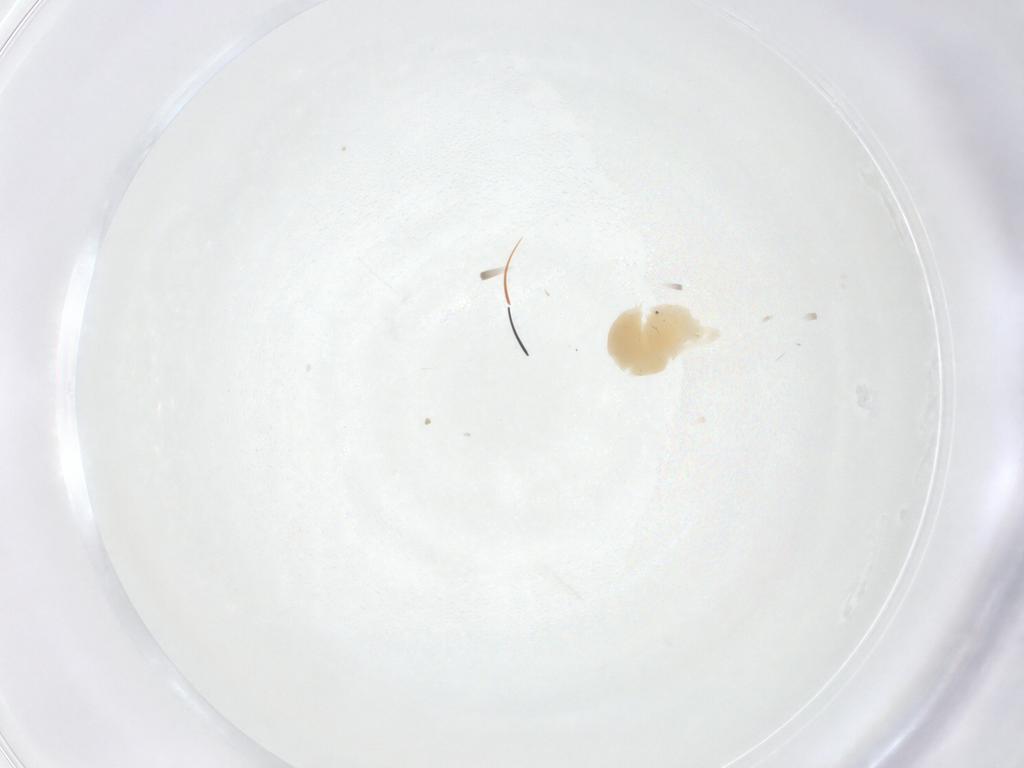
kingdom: Animalia
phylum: Arthropoda
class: Arachnida
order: Trombidiformes
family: Erythraeidae
